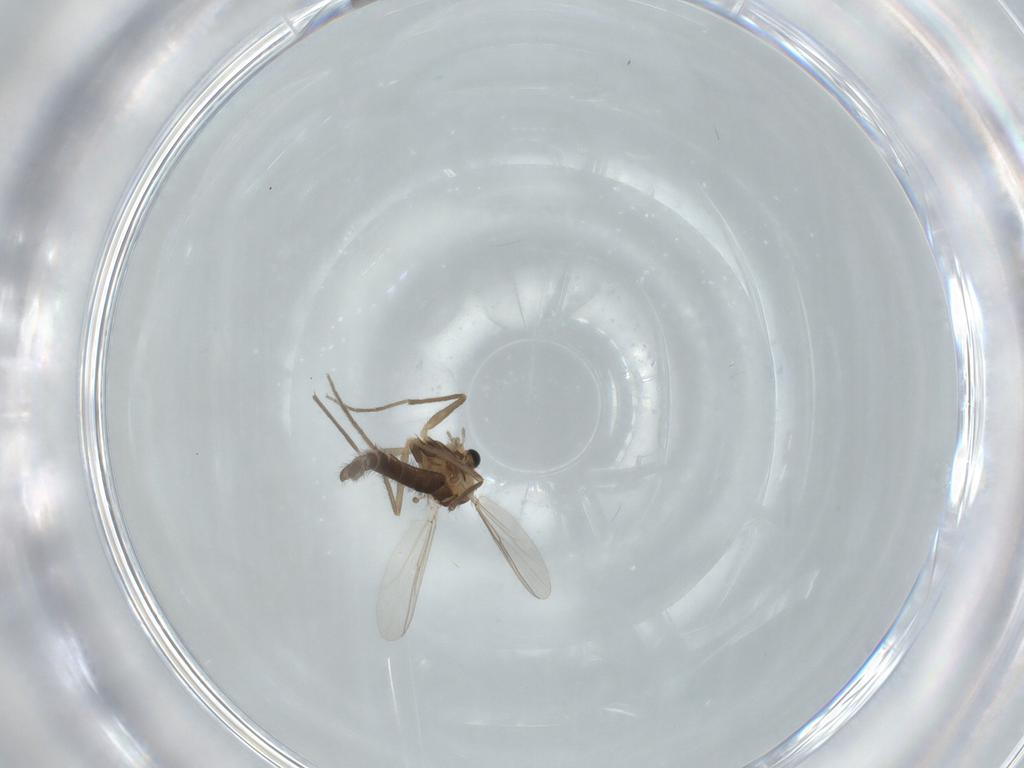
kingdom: Animalia
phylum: Arthropoda
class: Insecta
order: Diptera
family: Chironomidae
